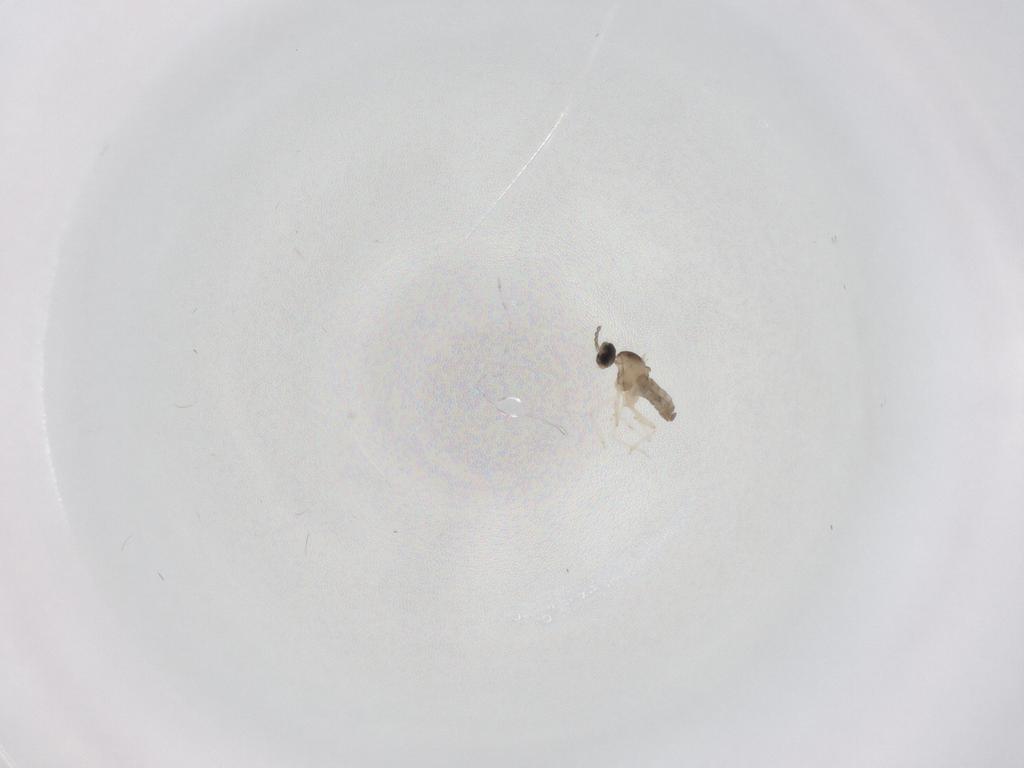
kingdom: Animalia
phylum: Arthropoda
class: Insecta
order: Diptera
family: Cecidomyiidae
